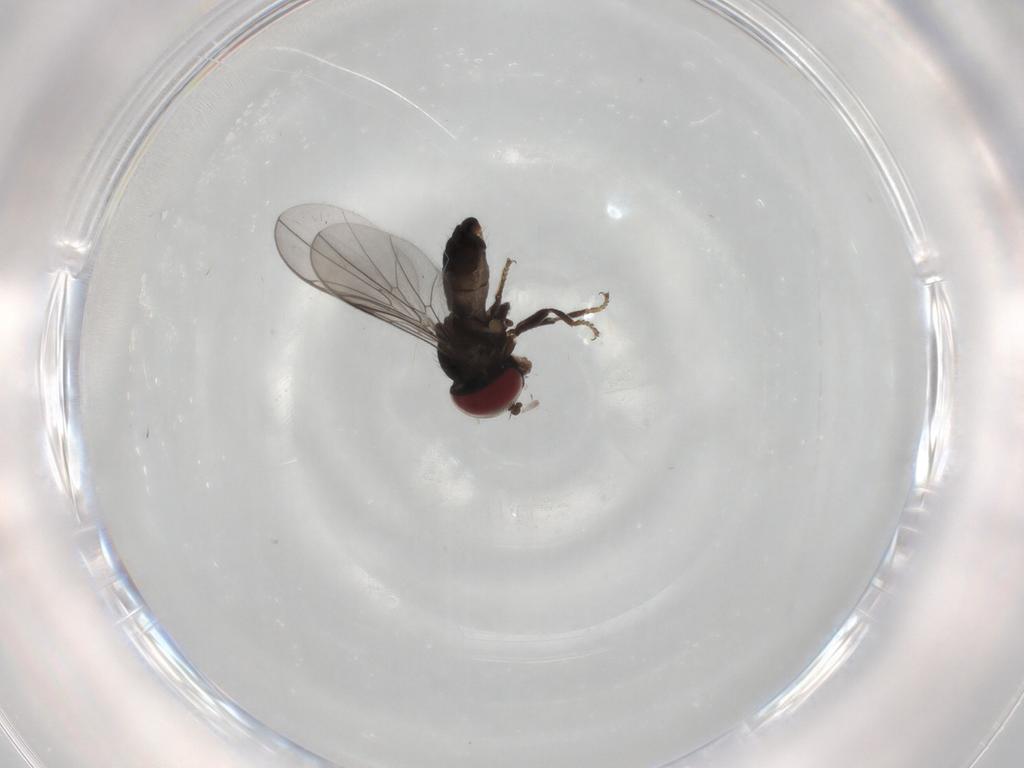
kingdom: Animalia
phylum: Arthropoda
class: Insecta
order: Diptera
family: Pipunculidae
